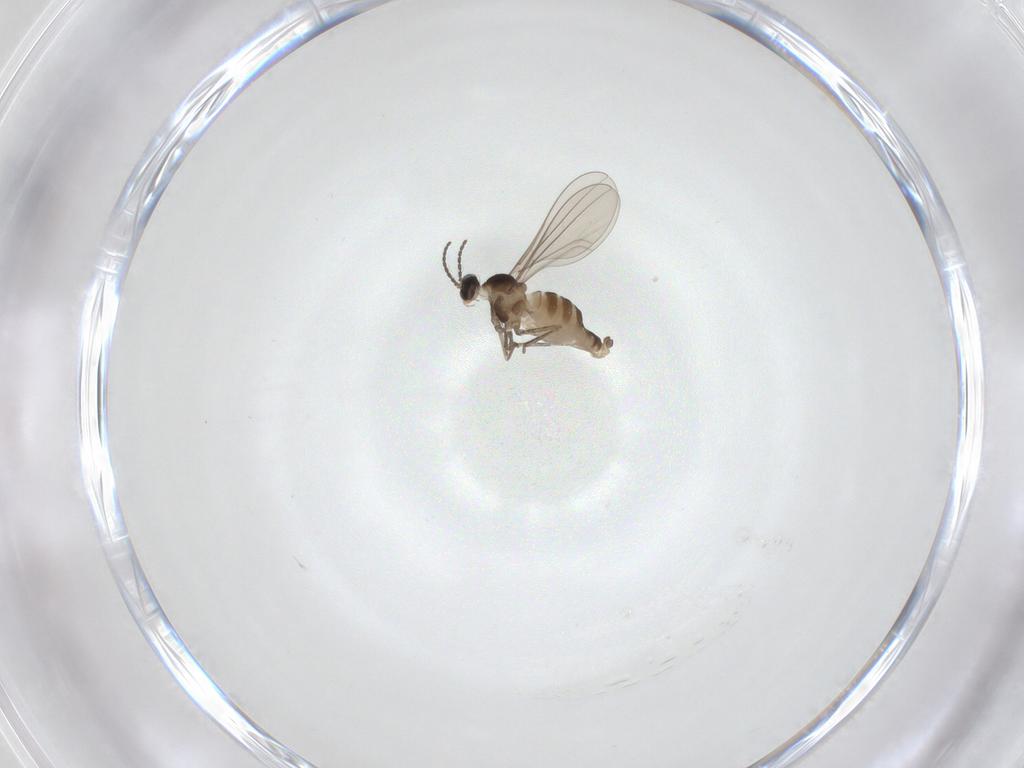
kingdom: Animalia
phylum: Arthropoda
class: Insecta
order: Diptera
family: Cecidomyiidae
